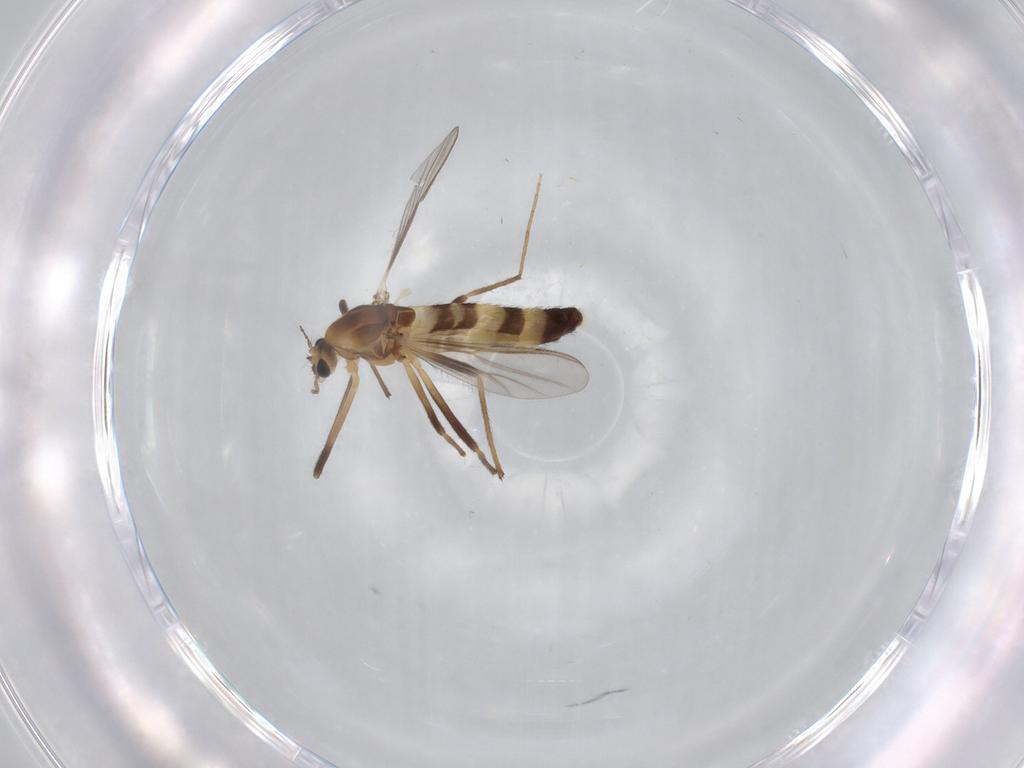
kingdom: Animalia
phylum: Arthropoda
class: Insecta
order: Diptera
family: Chironomidae
